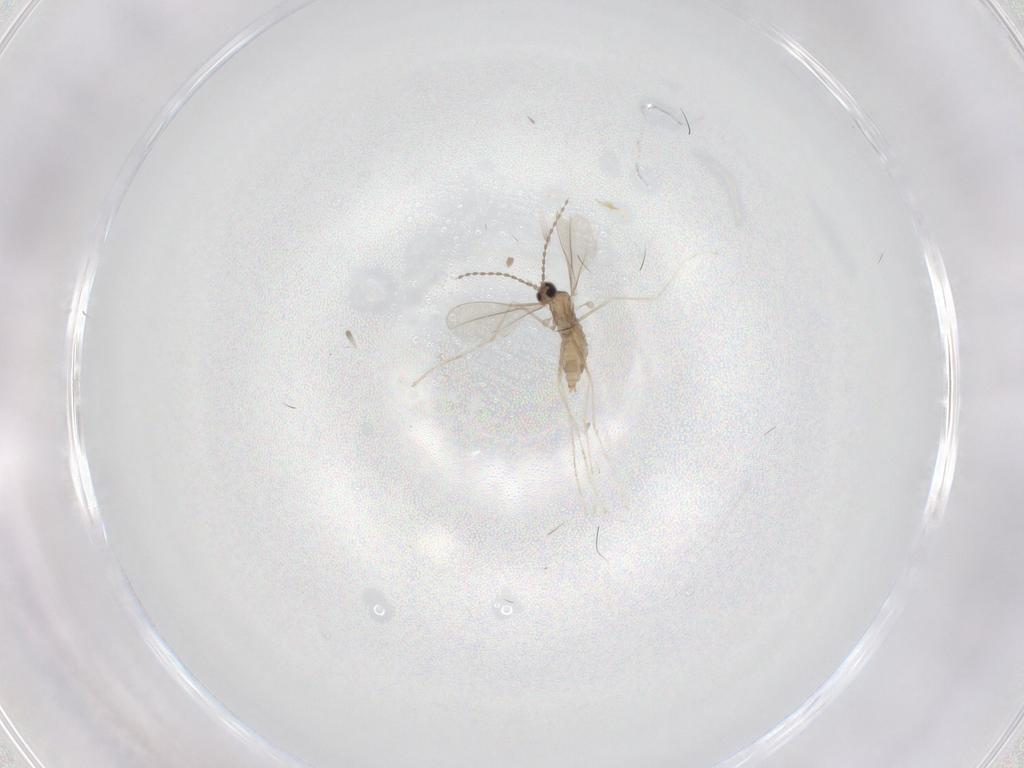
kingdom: Animalia
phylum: Arthropoda
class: Insecta
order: Diptera
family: Cecidomyiidae
